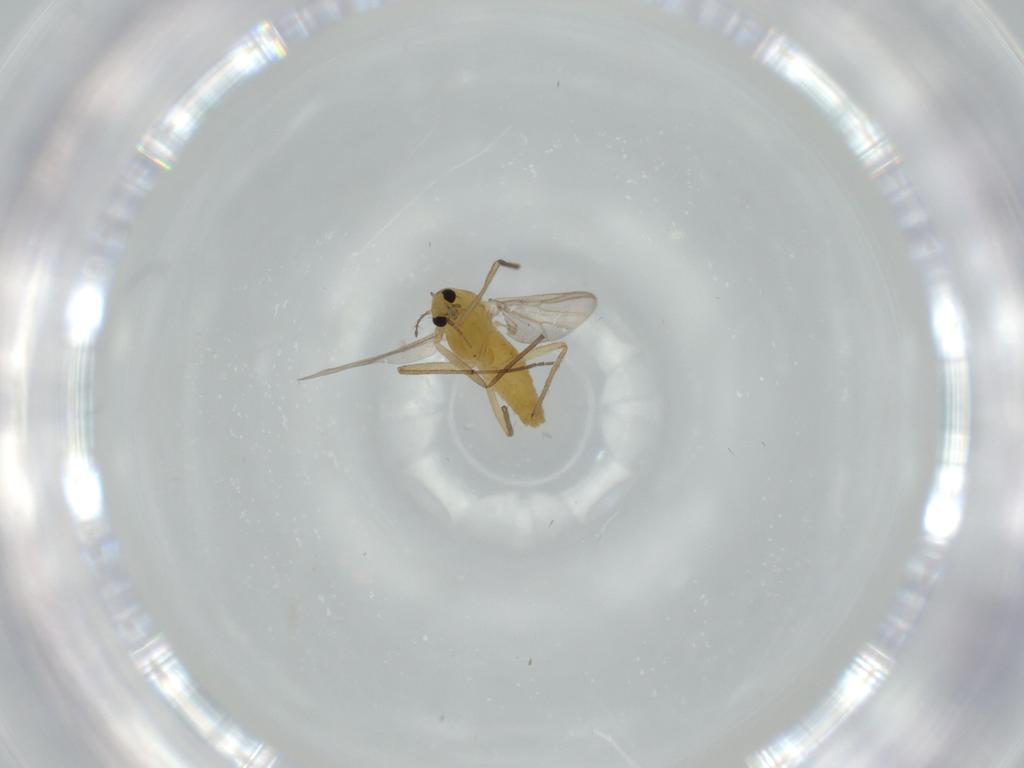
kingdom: Animalia
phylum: Arthropoda
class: Insecta
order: Diptera
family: Chironomidae
